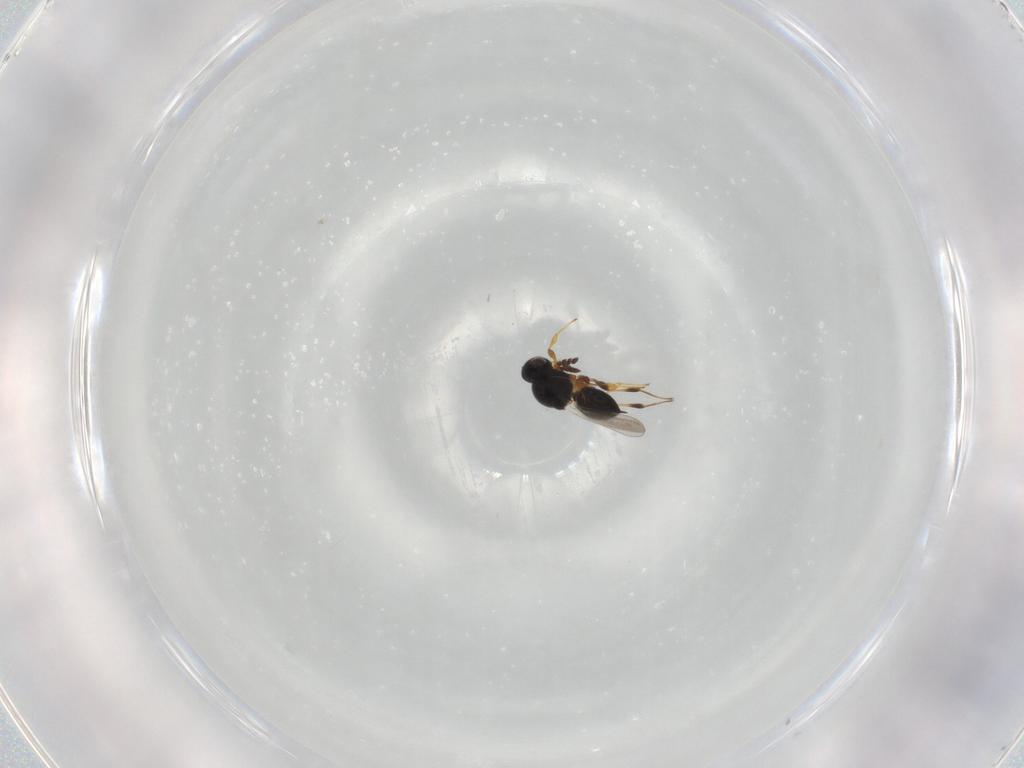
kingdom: Animalia
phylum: Arthropoda
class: Insecta
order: Hymenoptera
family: Platygastridae
